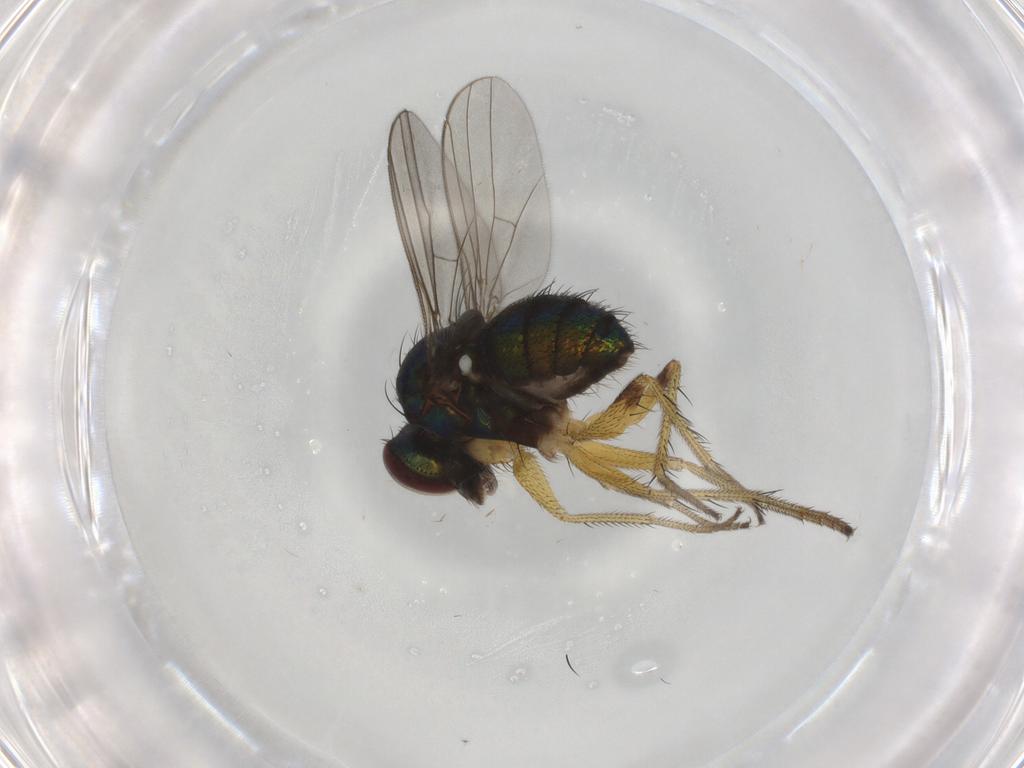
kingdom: Animalia
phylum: Arthropoda
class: Insecta
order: Diptera
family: Dolichopodidae
